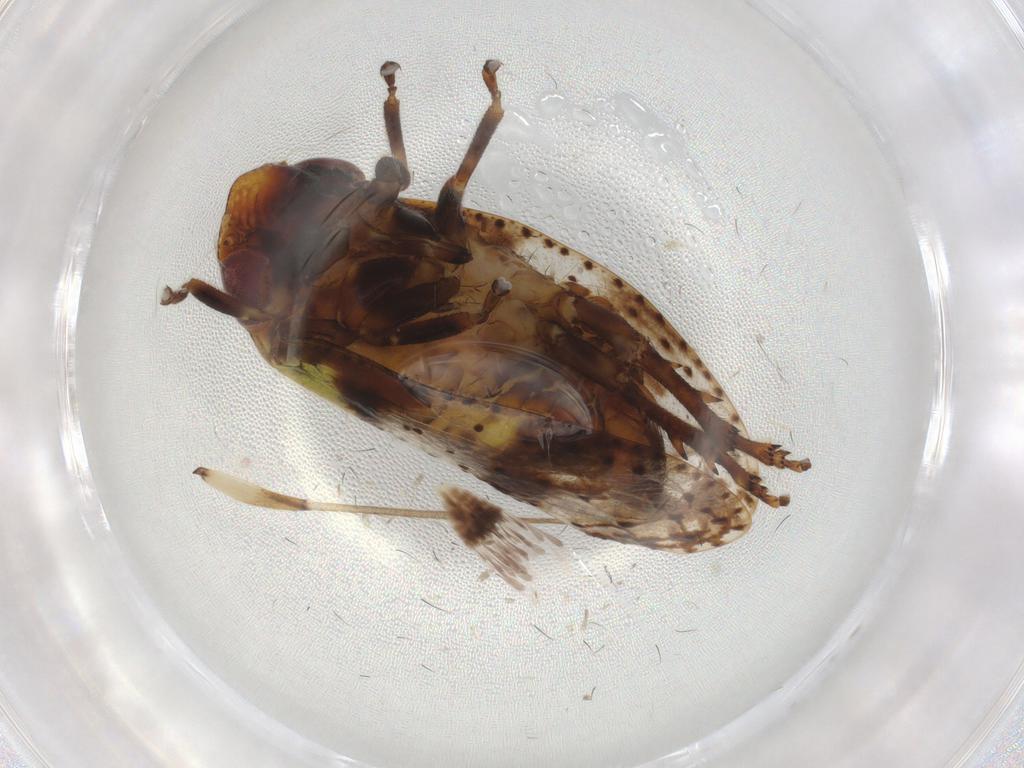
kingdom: Animalia
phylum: Arthropoda
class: Insecta
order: Hemiptera
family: Machaerotidae
